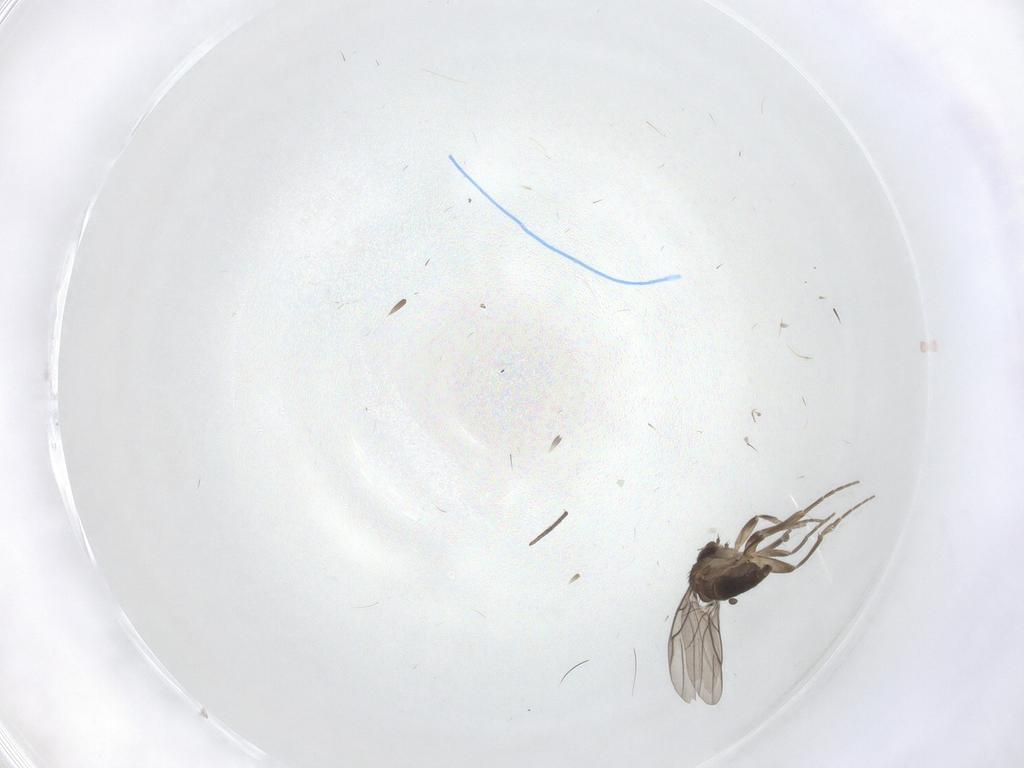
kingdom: Animalia
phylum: Arthropoda
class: Insecta
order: Diptera
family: Phoridae
